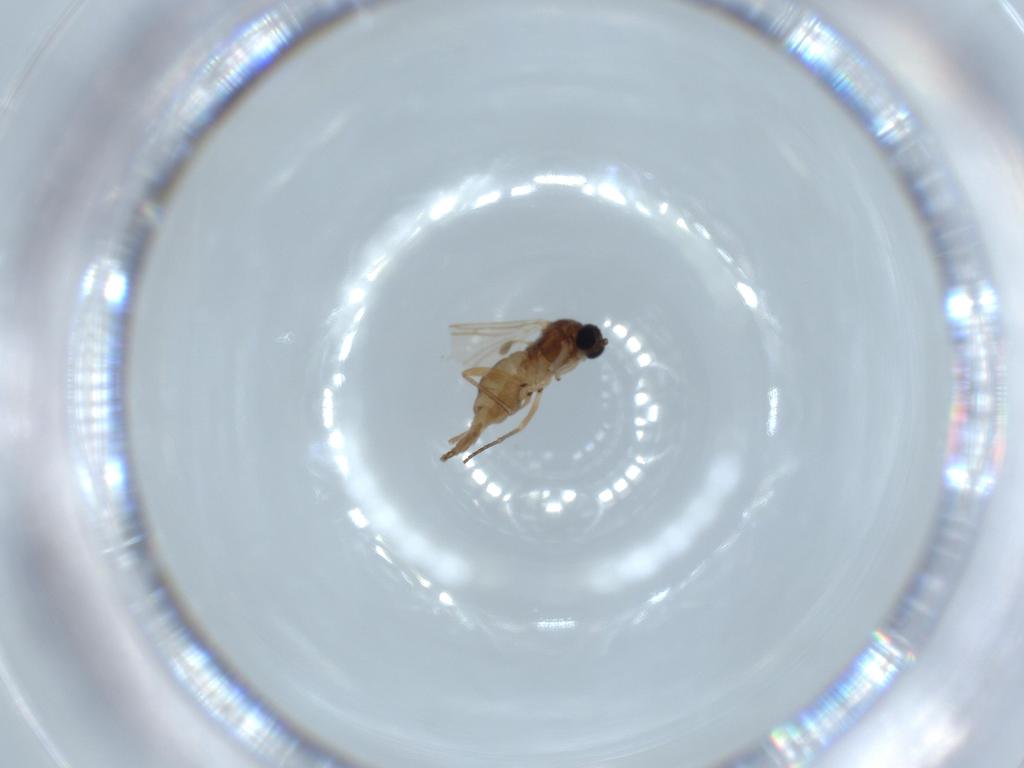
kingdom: Animalia
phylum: Arthropoda
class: Insecta
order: Diptera
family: Sciaridae
